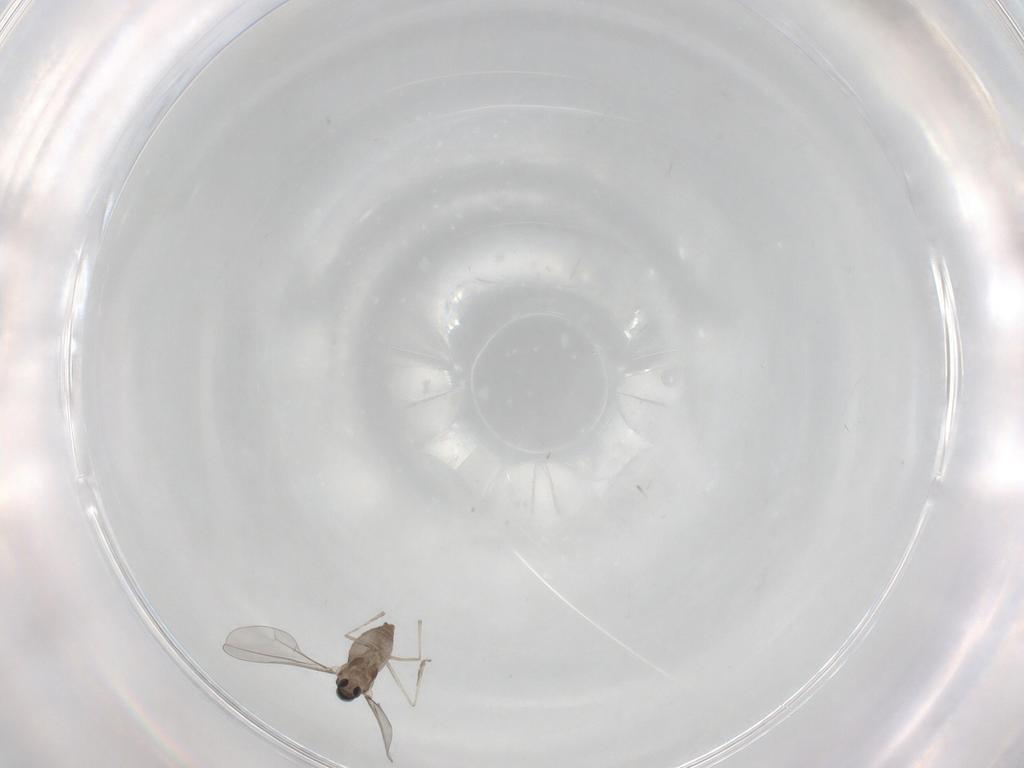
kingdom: Animalia
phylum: Arthropoda
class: Insecta
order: Diptera
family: Cecidomyiidae
